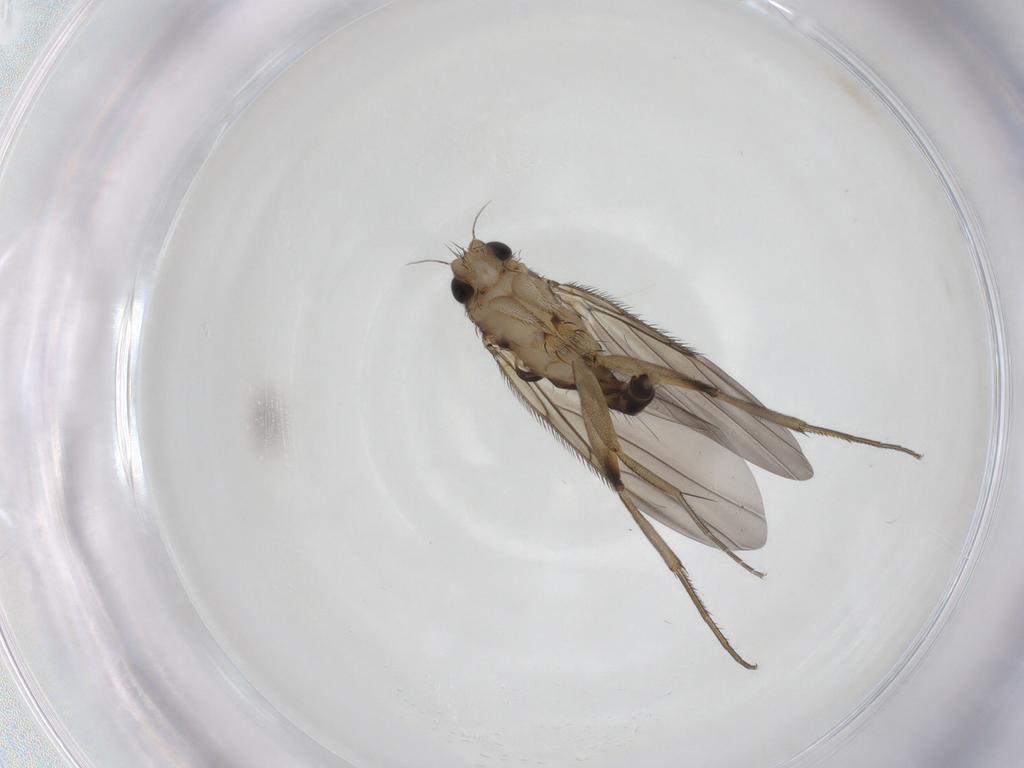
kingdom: Animalia
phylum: Arthropoda
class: Insecta
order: Diptera
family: Phoridae
